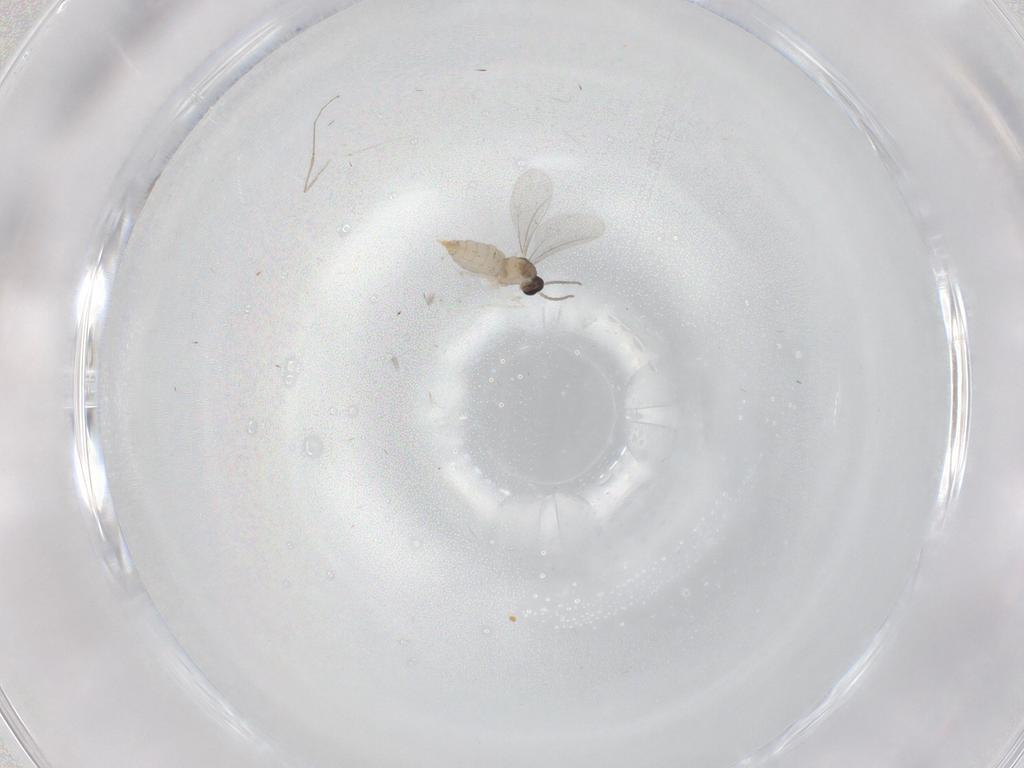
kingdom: Animalia
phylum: Arthropoda
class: Insecta
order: Diptera
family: Cecidomyiidae
